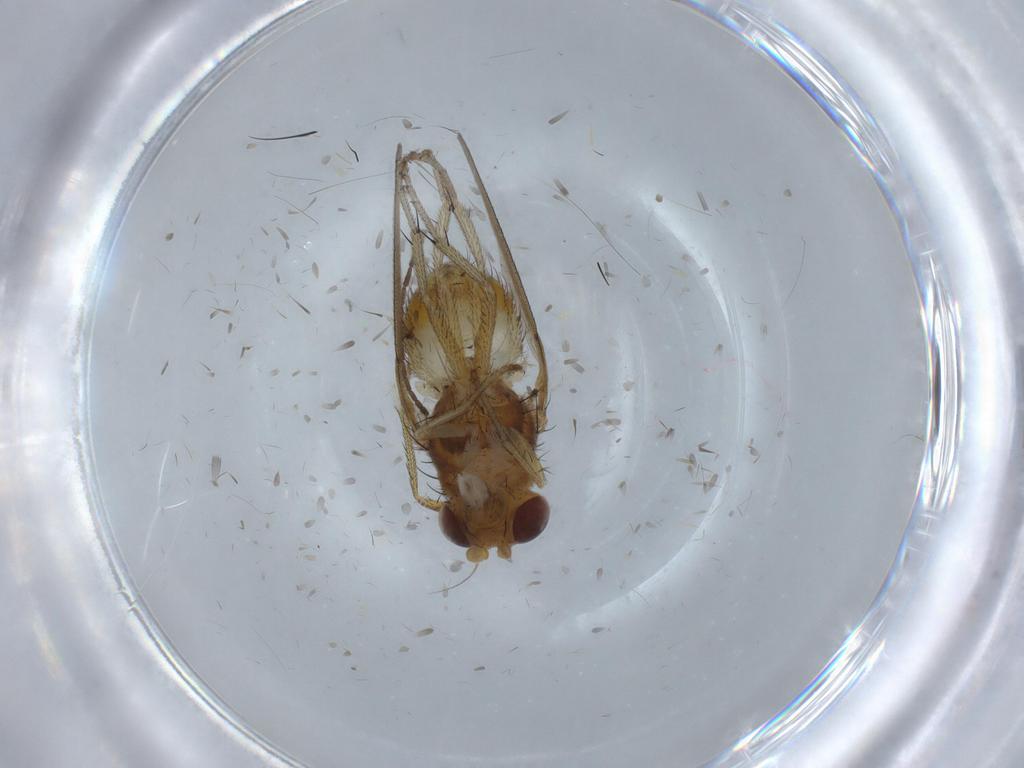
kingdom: Animalia
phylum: Arthropoda
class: Insecta
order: Diptera
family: Chironomidae
